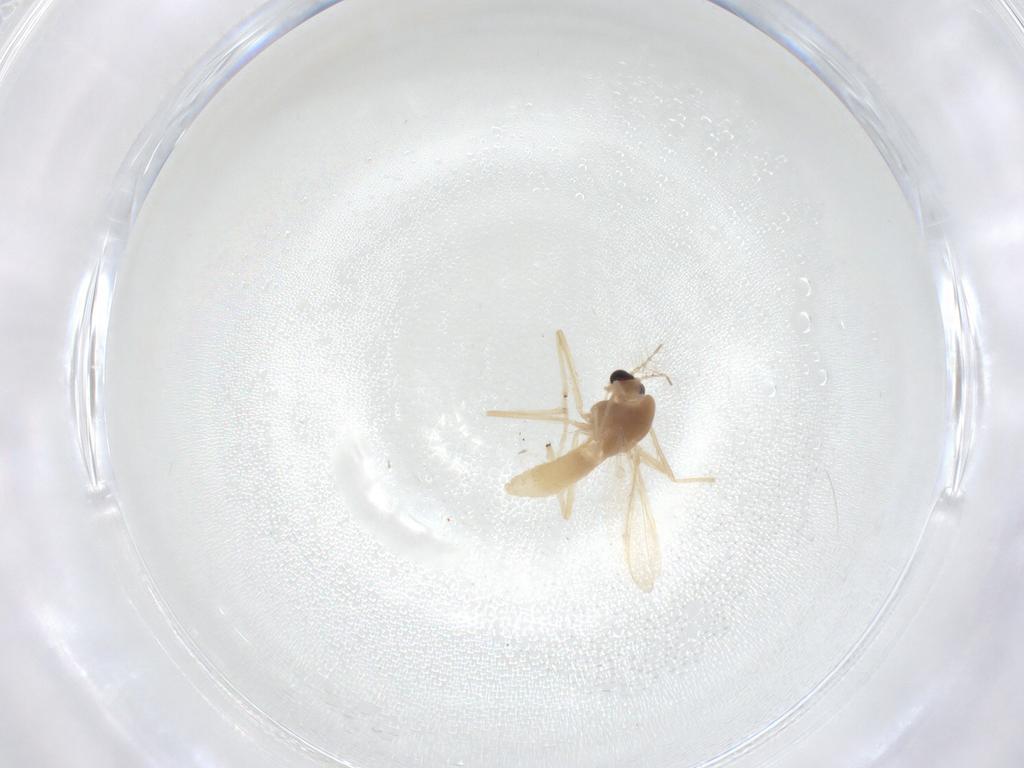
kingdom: Animalia
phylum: Arthropoda
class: Insecta
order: Diptera
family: Chironomidae
